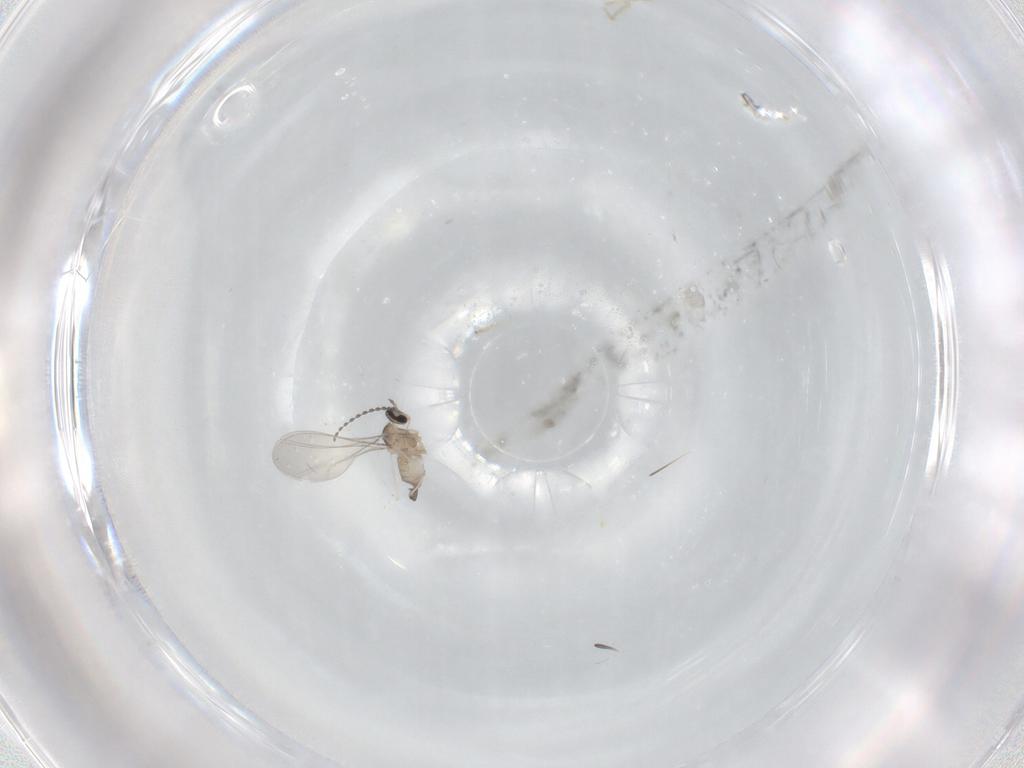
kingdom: Animalia
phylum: Arthropoda
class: Insecta
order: Diptera
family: Cecidomyiidae
